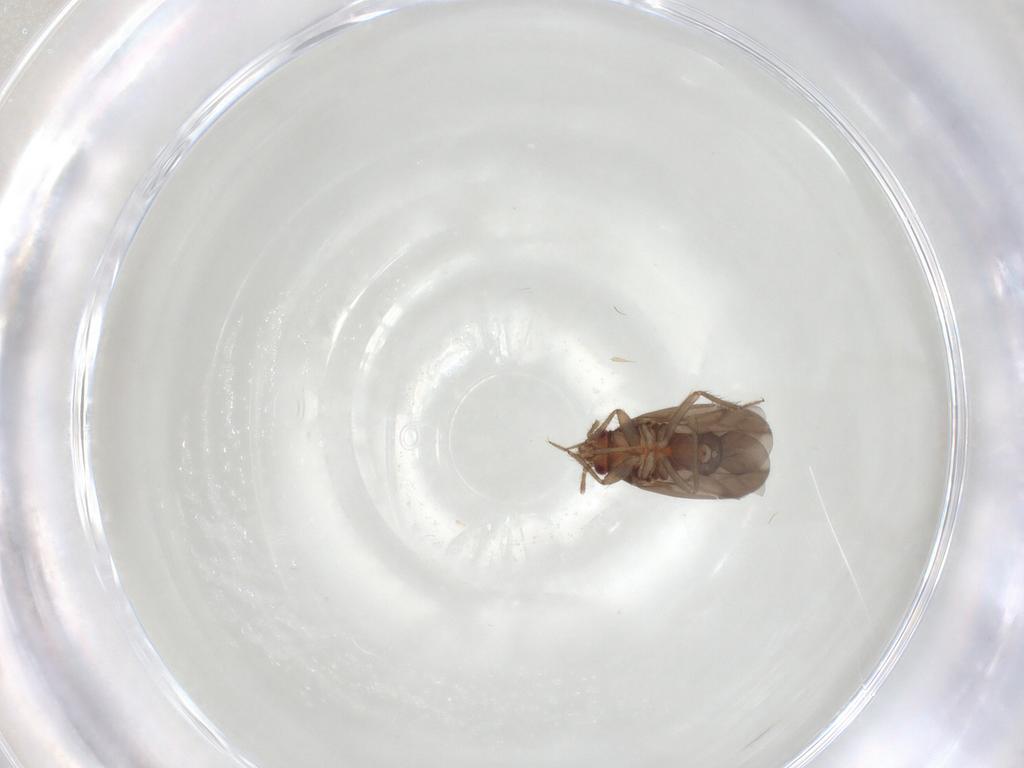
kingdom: Animalia
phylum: Arthropoda
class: Insecta
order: Hemiptera
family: Ceratocombidae
